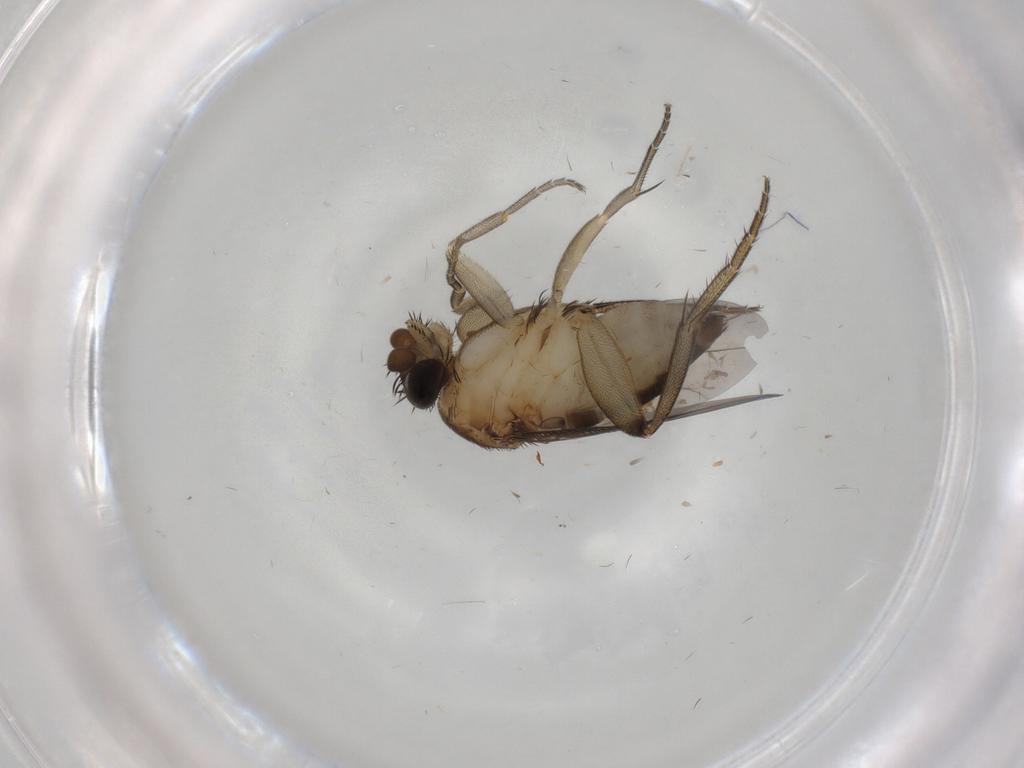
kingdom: Animalia
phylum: Arthropoda
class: Insecta
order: Diptera
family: Phoridae
